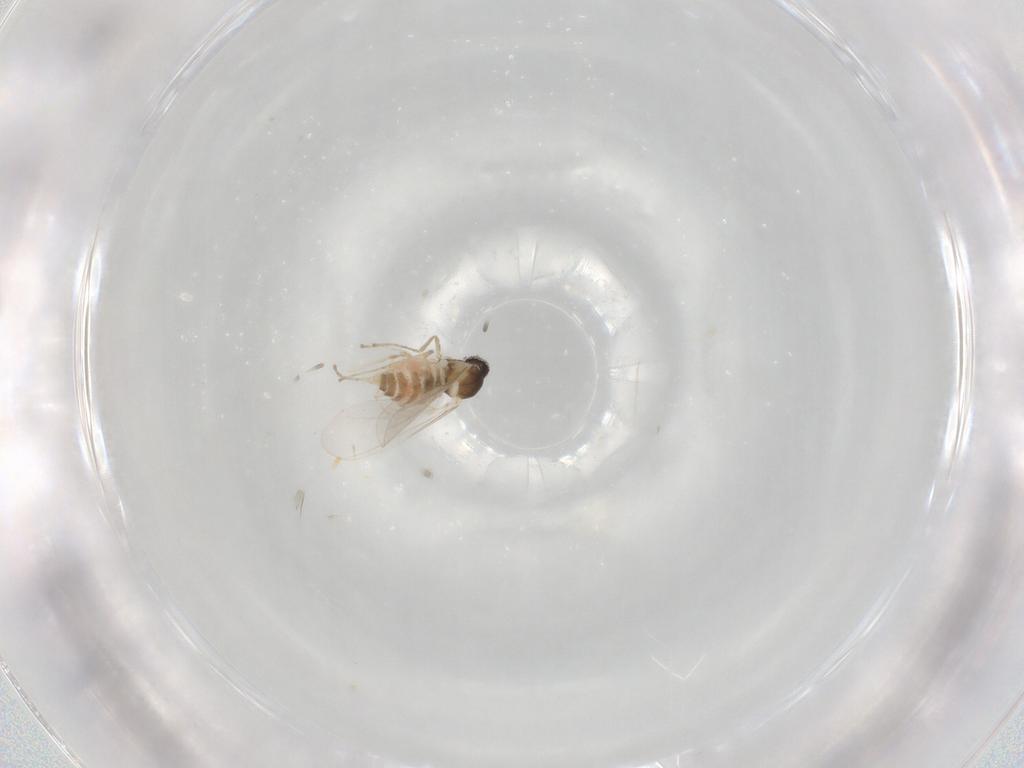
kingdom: Animalia
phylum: Arthropoda
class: Insecta
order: Diptera
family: Cecidomyiidae
